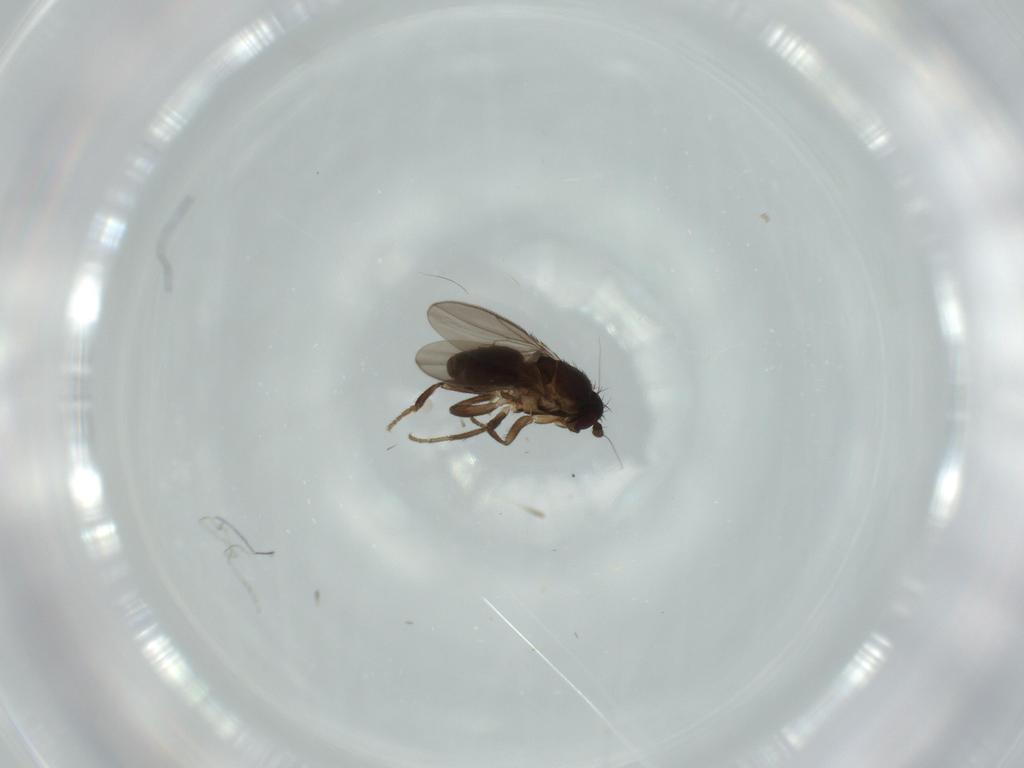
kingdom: Animalia
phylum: Arthropoda
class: Insecta
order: Diptera
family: Sphaeroceridae
